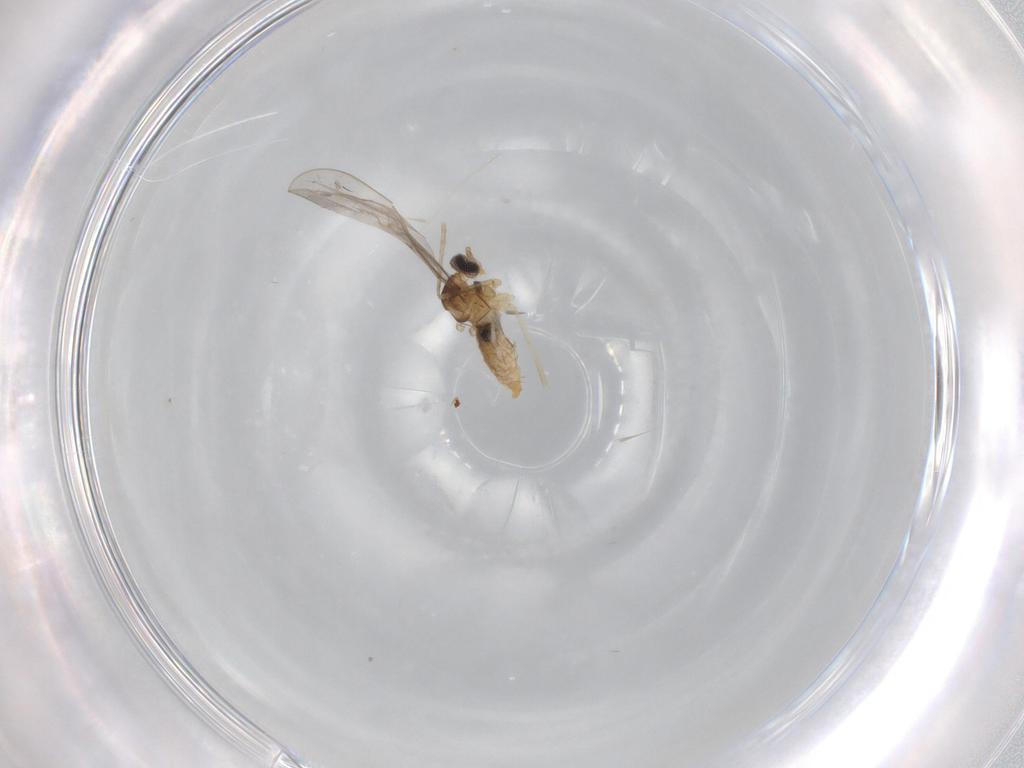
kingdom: Animalia
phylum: Arthropoda
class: Insecta
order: Diptera
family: Cecidomyiidae
